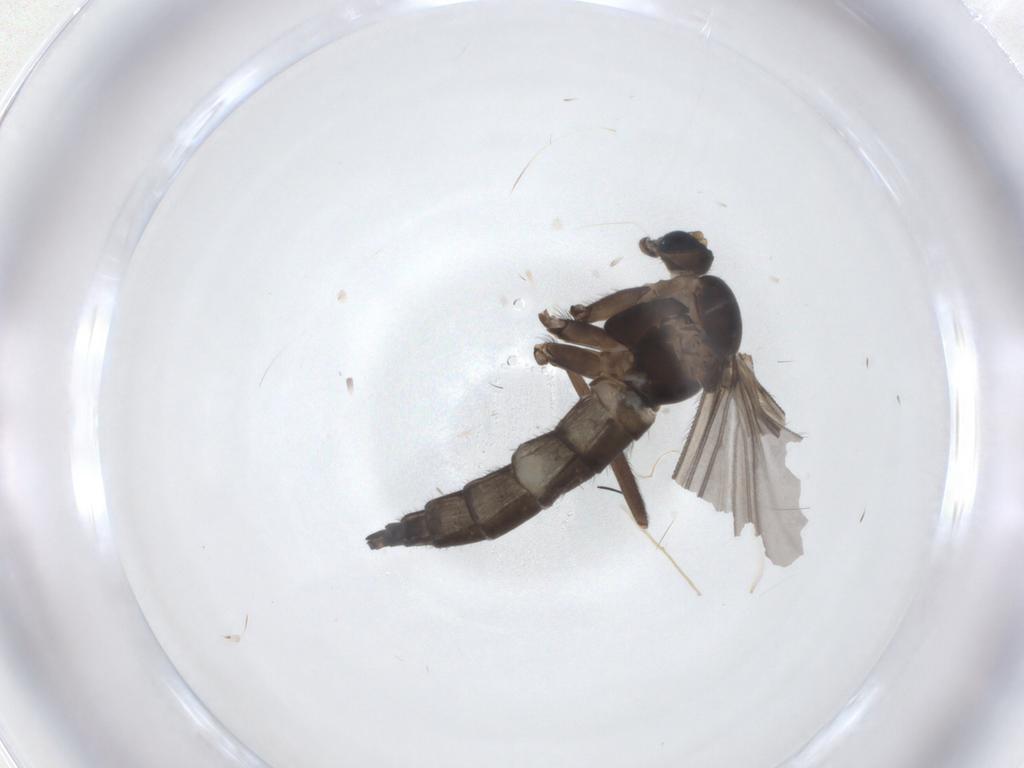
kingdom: Animalia
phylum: Arthropoda
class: Insecta
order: Diptera
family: Sciaridae
